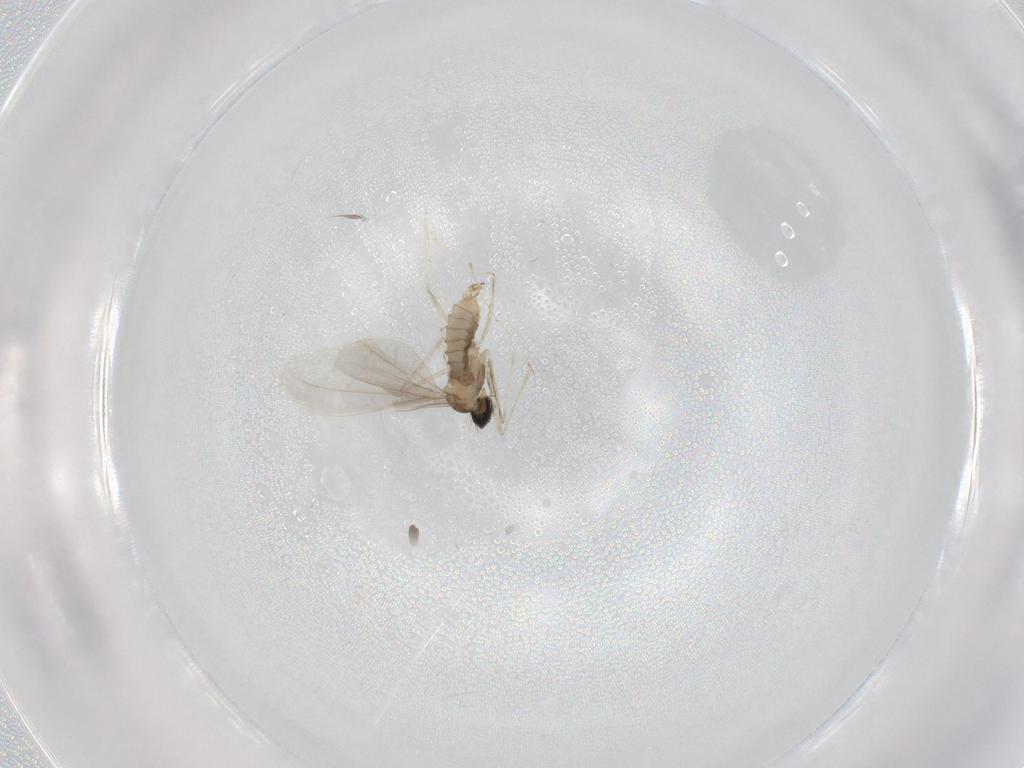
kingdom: Animalia
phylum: Arthropoda
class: Insecta
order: Diptera
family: Cecidomyiidae
